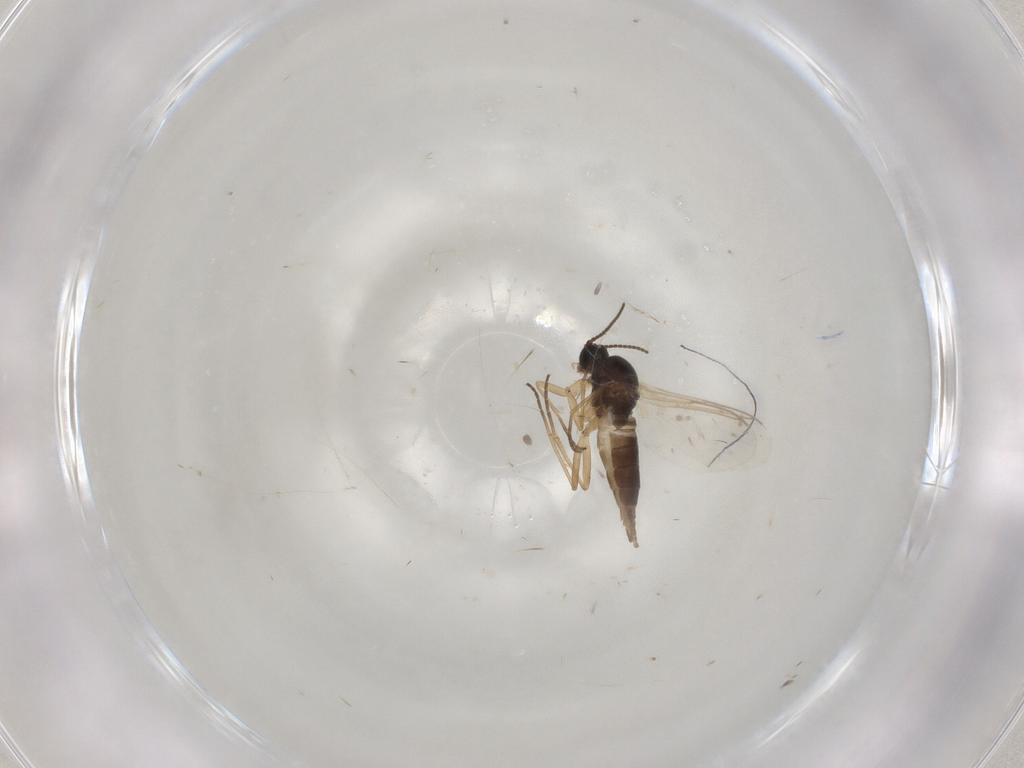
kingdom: Animalia
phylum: Arthropoda
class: Insecta
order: Diptera
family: Sciaridae
